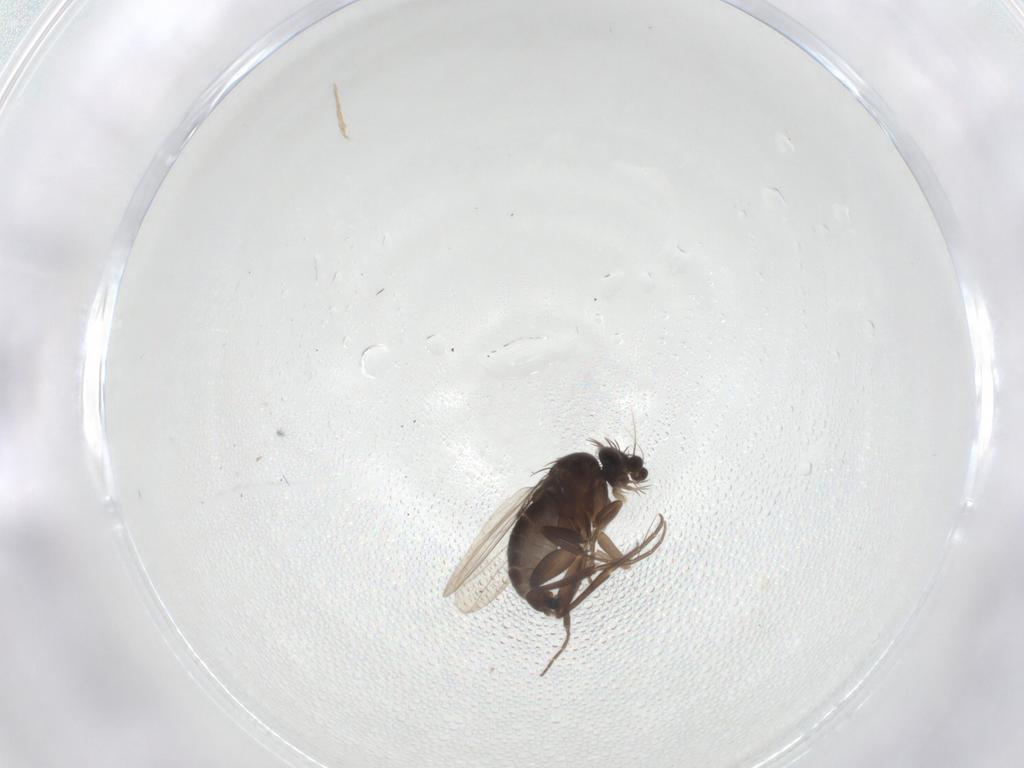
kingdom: Animalia
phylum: Arthropoda
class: Insecta
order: Diptera
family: Phoridae
